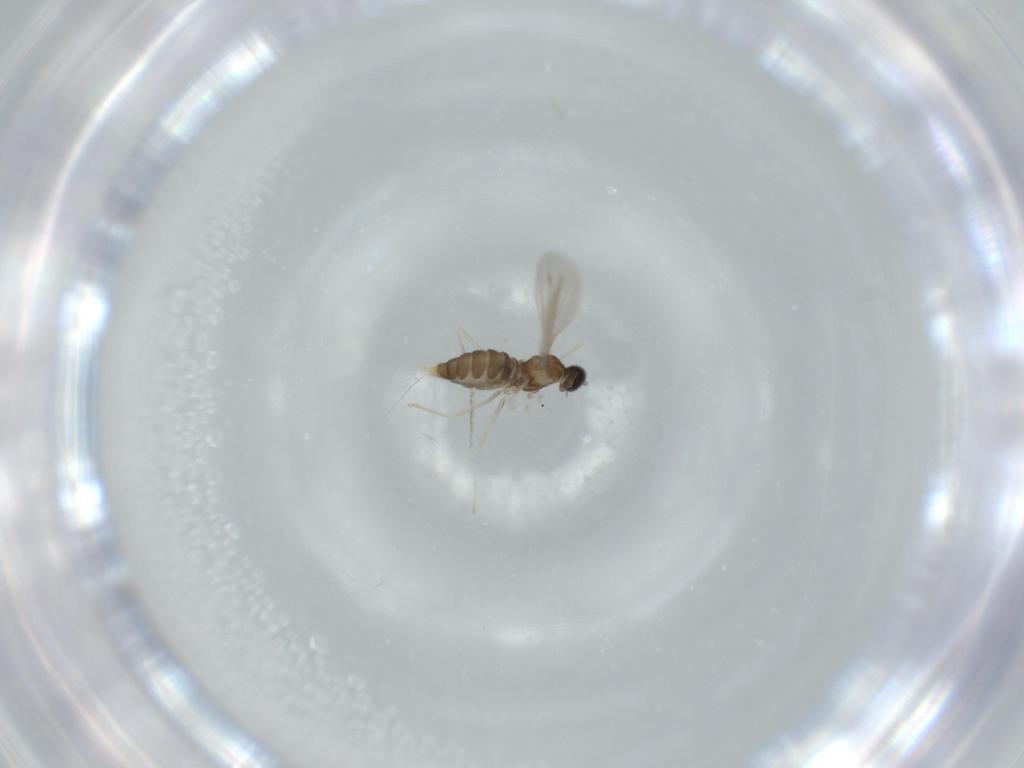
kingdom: Animalia
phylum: Arthropoda
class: Insecta
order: Diptera
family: Cecidomyiidae
